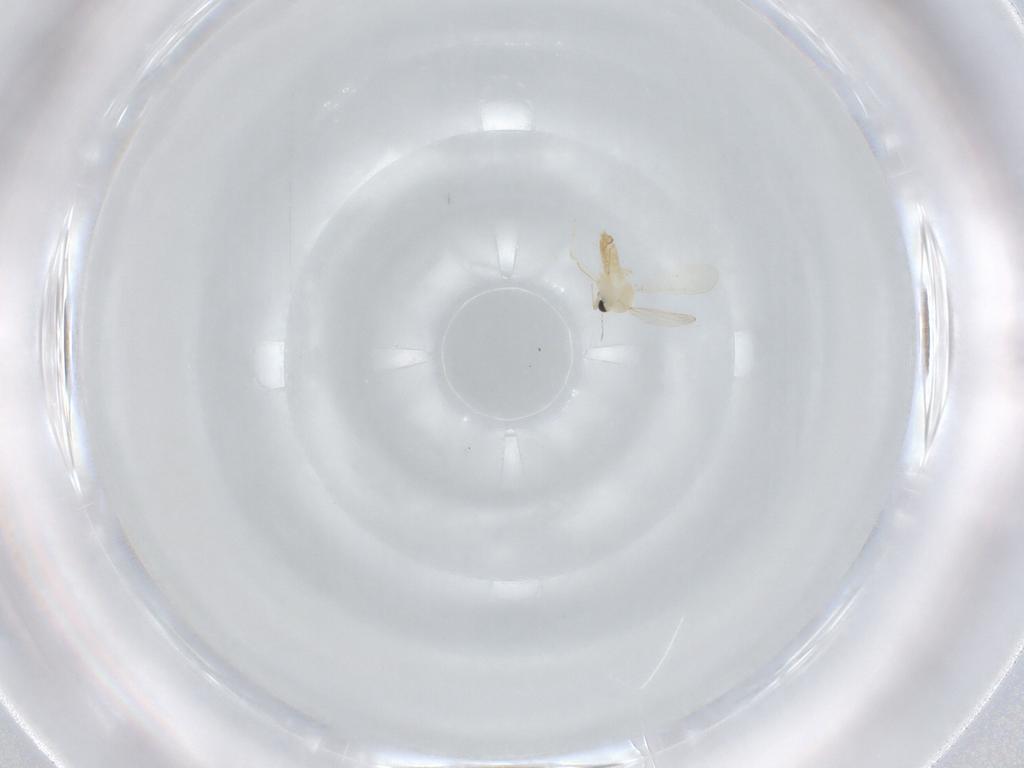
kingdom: Animalia
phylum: Arthropoda
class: Insecta
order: Diptera
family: Chironomidae
